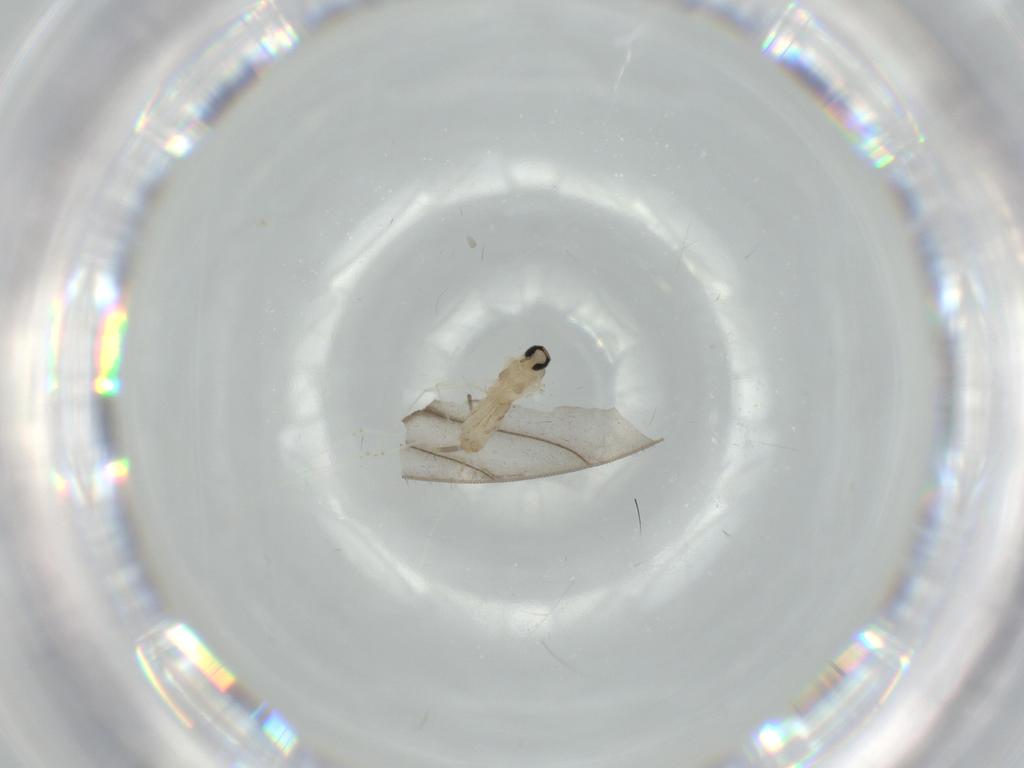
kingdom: Animalia
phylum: Arthropoda
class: Insecta
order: Diptera
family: Chironomidae
